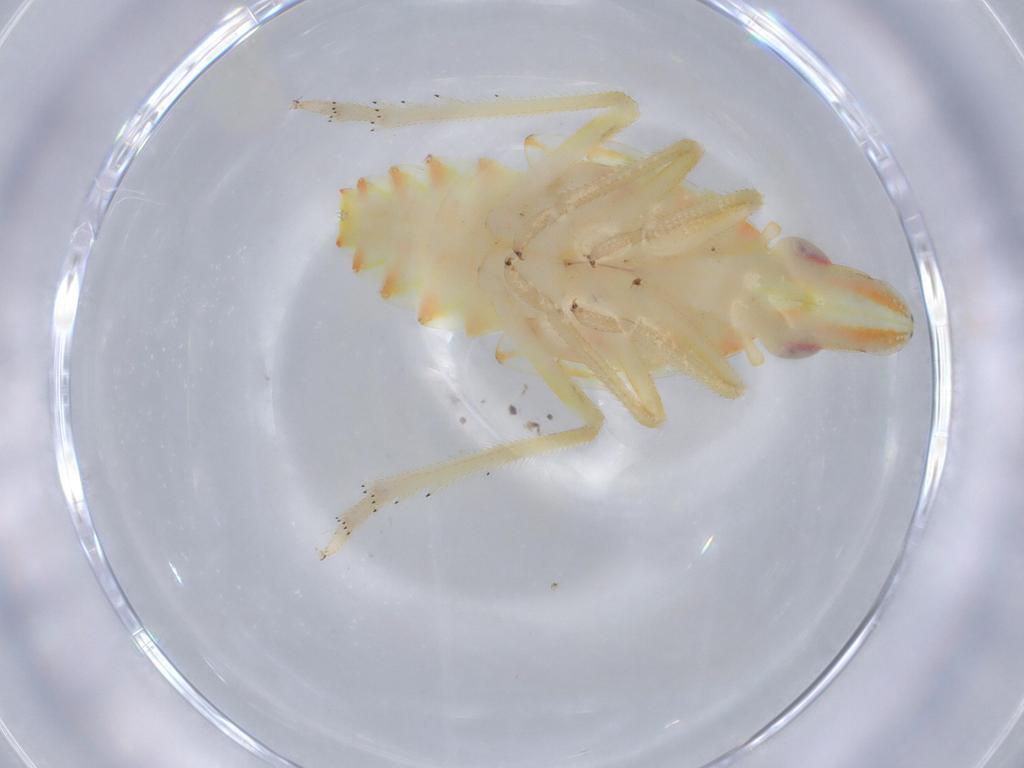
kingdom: Animalia
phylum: Arthropoda
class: Insecta
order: Hemiptera
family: Tropiduchidae
